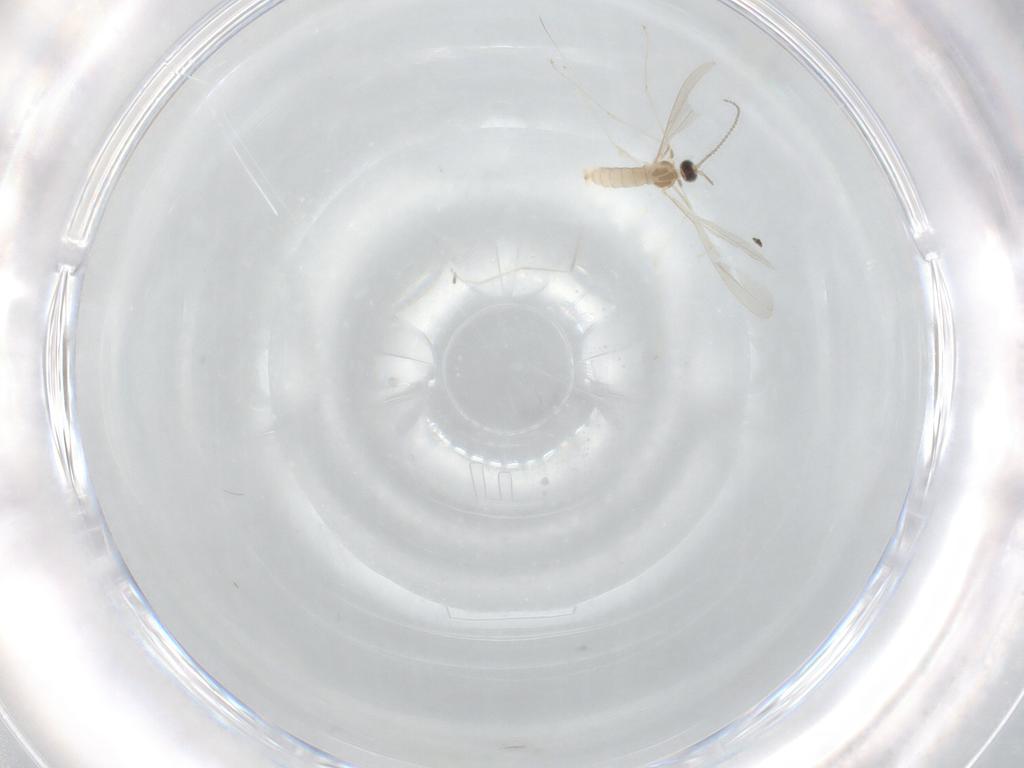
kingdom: Animalia
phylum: Arthropoda
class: Insecta
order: Diptera
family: Cecidomyiidae
